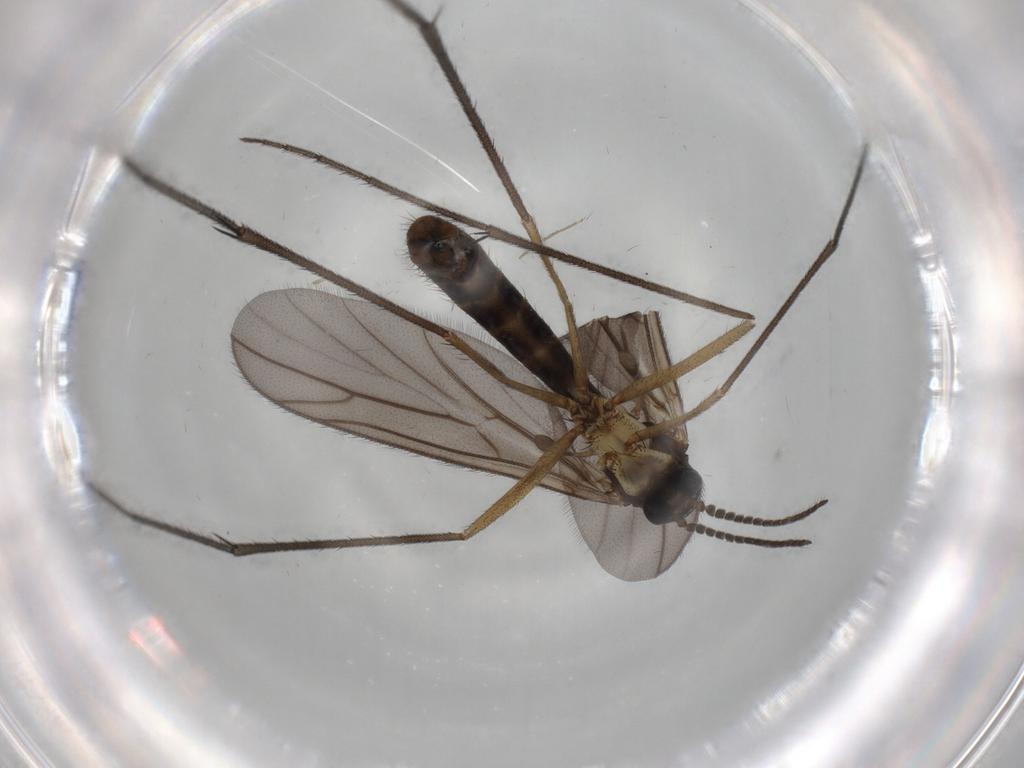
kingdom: Animalia
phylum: Arthropoda
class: Insecta
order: Diptera
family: Ditomyiidae
